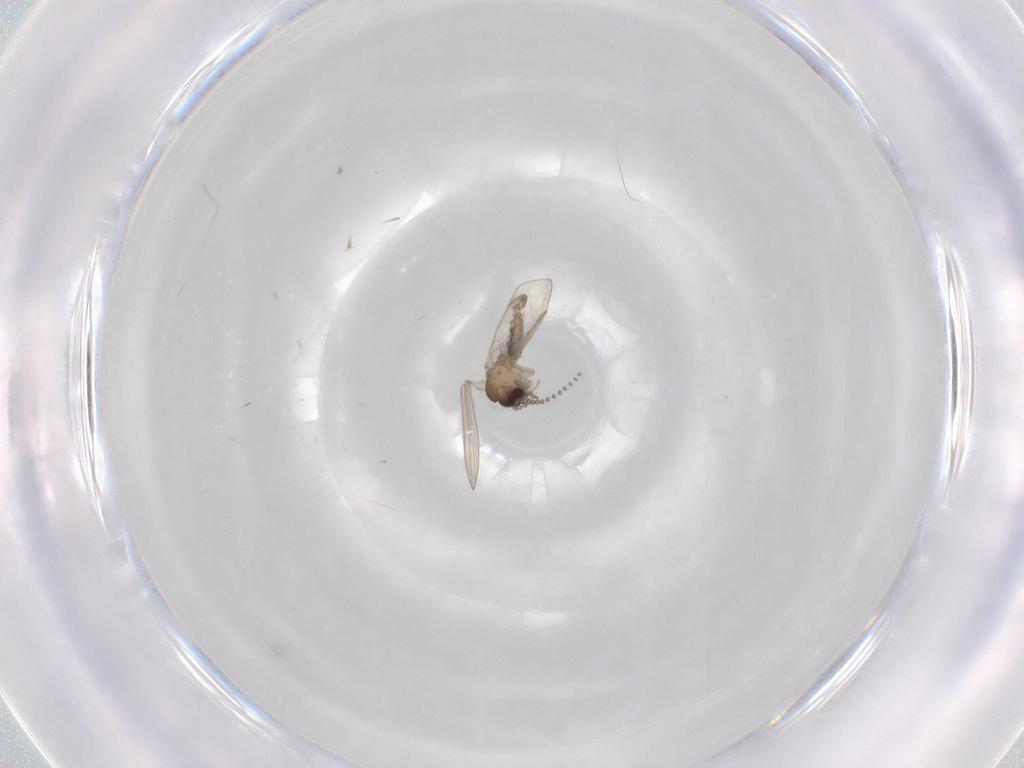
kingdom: Animalia
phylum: Arthropoda
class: Insecta
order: Diptera
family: Psychodidae
